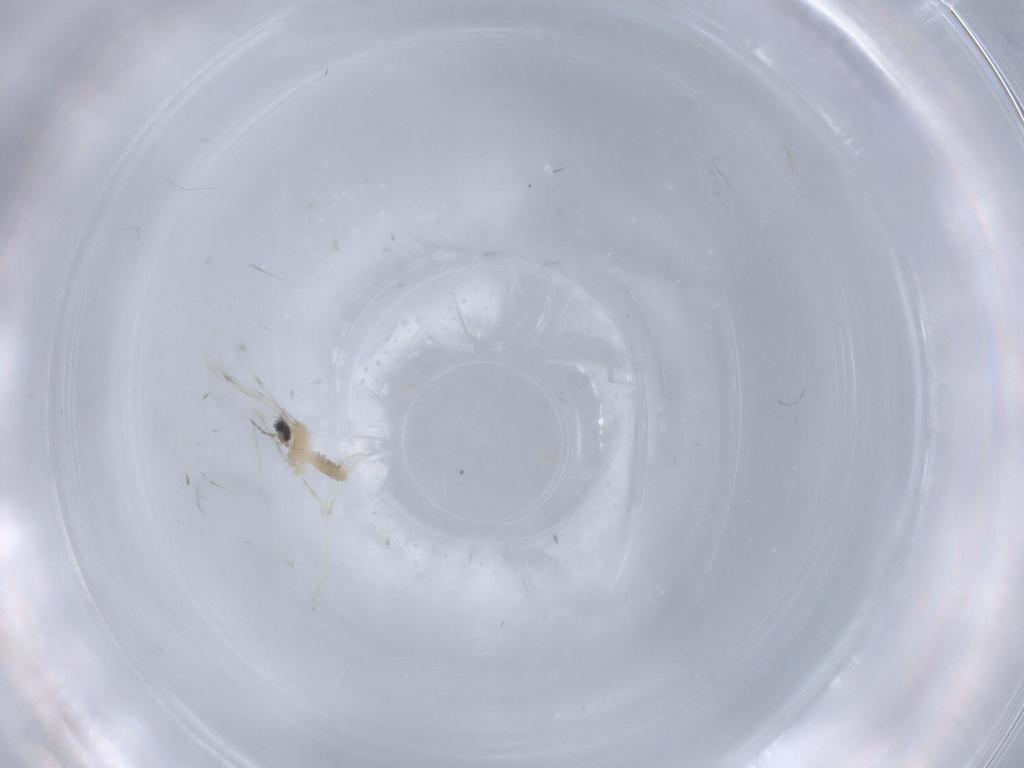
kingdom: Animalia
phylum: Arthropoda
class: Insecta
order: Diptera
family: Cecidomyiidae
